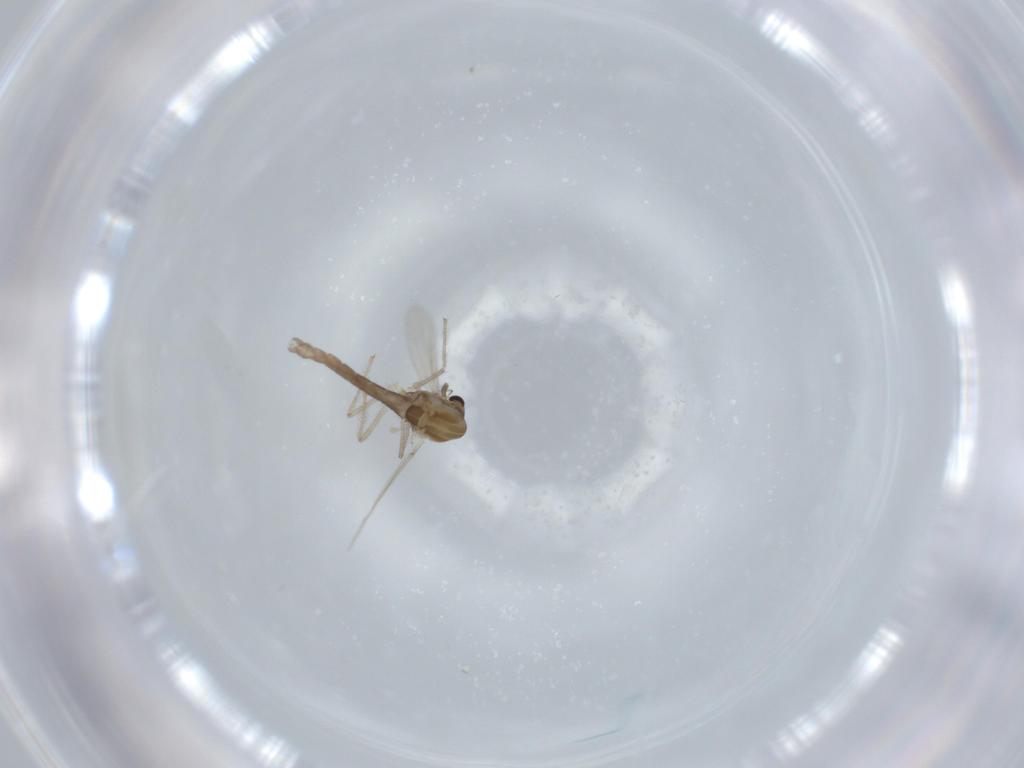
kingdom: Animalia
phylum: Arthropoda
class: Insecta
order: Diptera
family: Chironomidae
